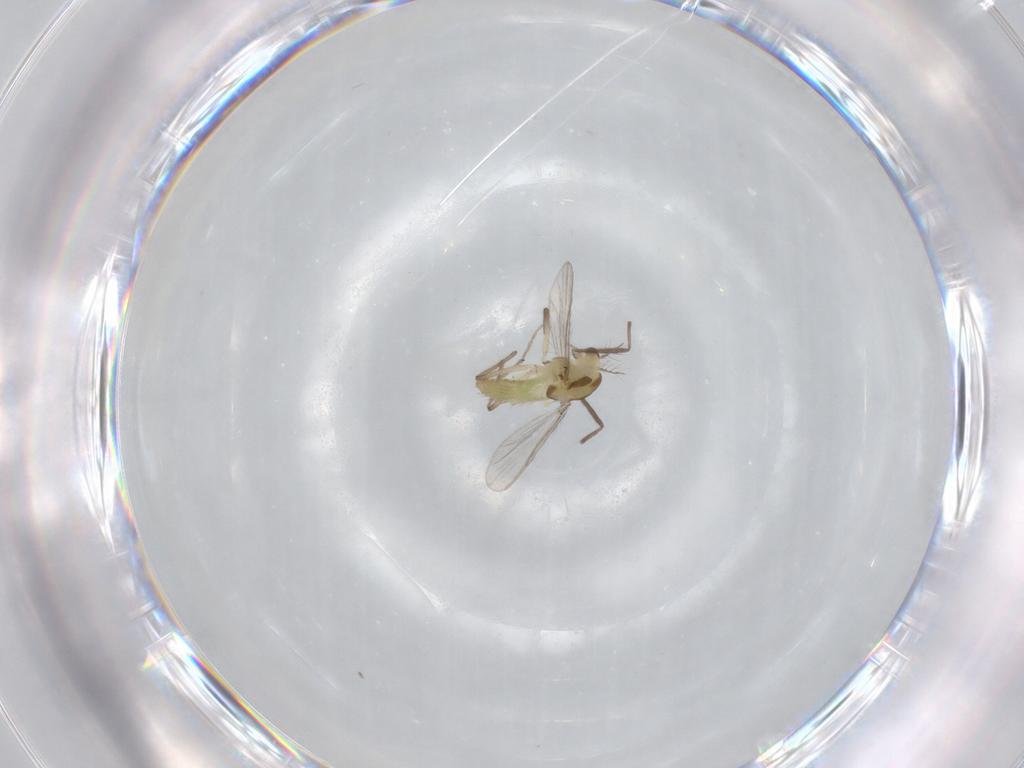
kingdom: Animalia
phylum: Arthropoda
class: Insecta
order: Diptera
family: Chironomidae
